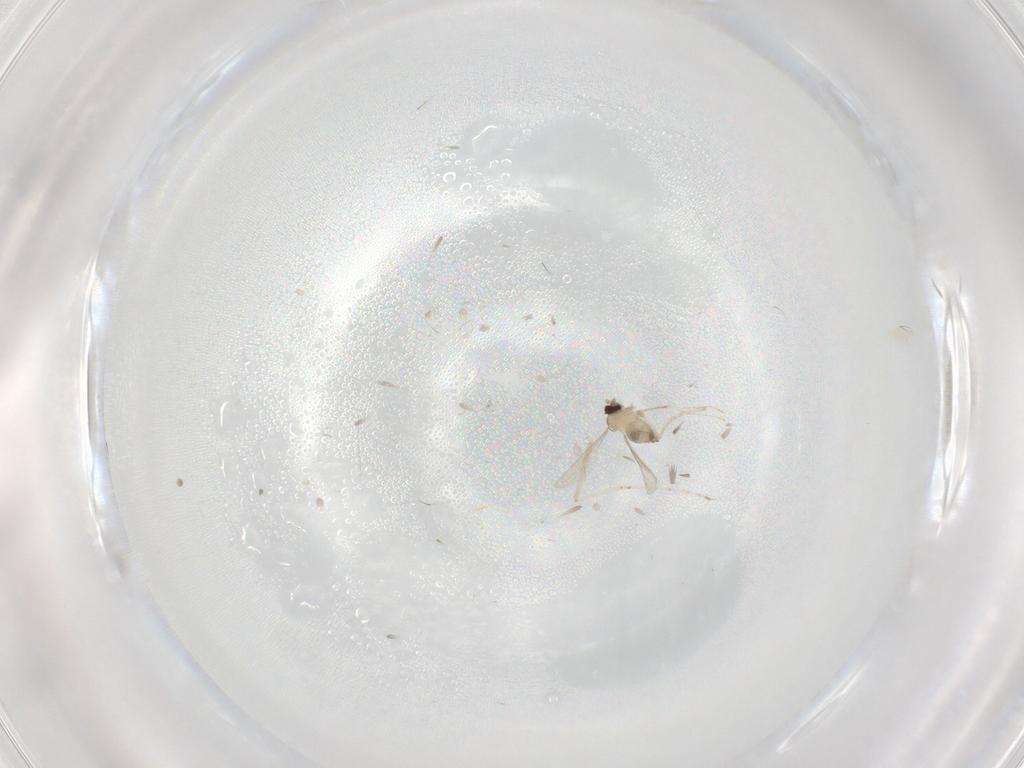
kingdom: Animalia
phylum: Arthropoda
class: Insecta
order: Diptera
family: Cecidomyiidae
